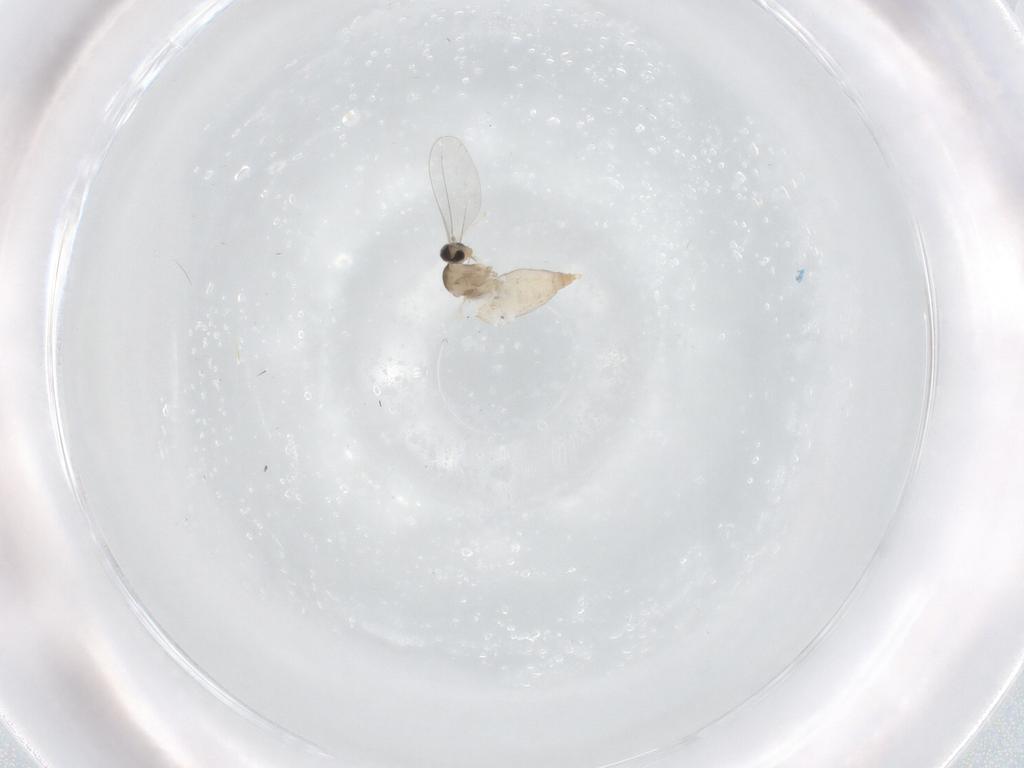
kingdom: Animalia
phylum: Arthropoda
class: Insecta
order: Diptera
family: Cecidomyiidae
